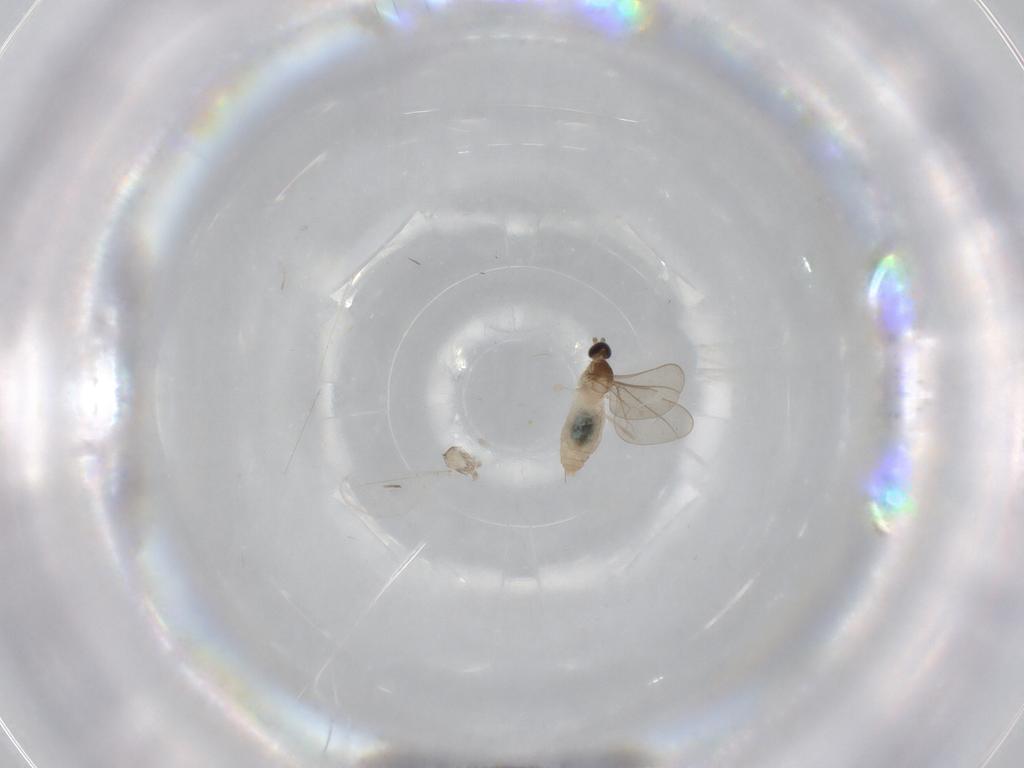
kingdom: Animalia
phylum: Arthropoda
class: Insecta
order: Diptera
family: Cecidomyiidae
